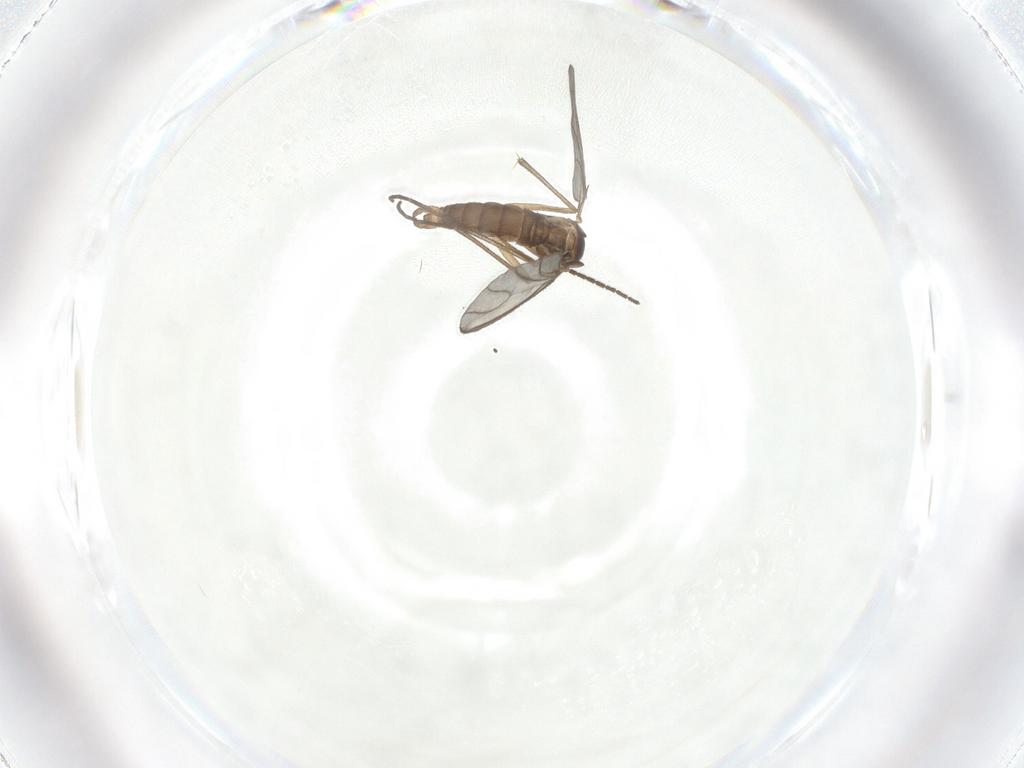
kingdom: Animalia
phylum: Arthropoda
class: Insecta
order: Diptera
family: Sciaridae
